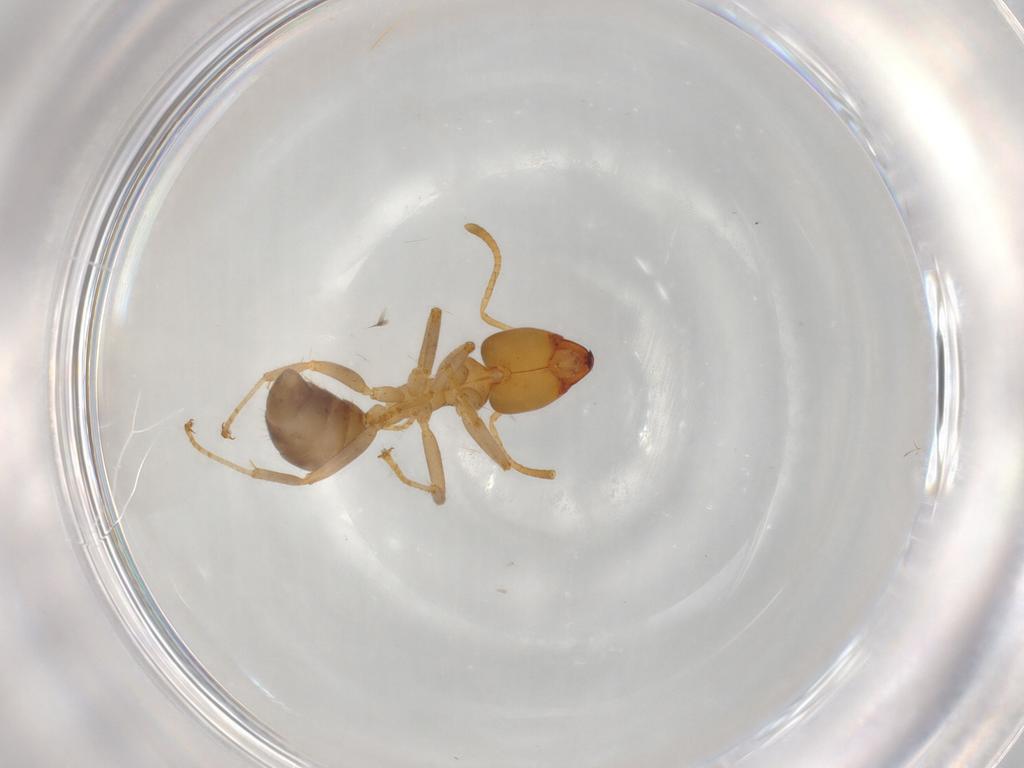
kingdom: Animalia
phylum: Arthropoda
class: Insecta
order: Hymenoptera
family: Formicidae
